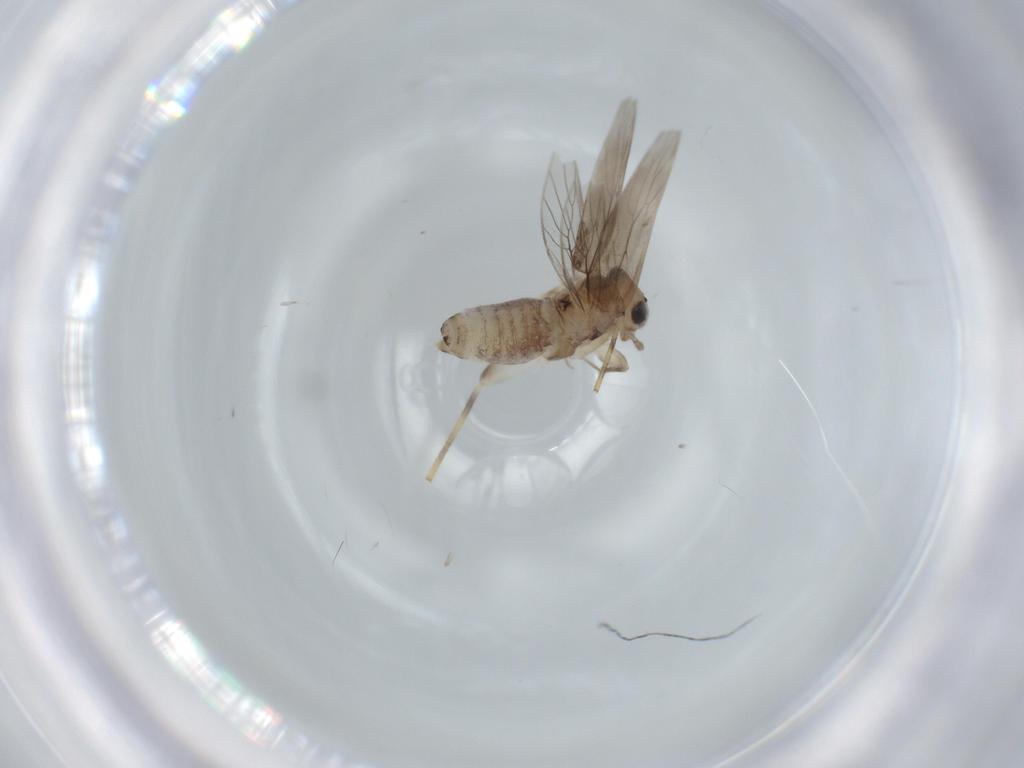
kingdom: Animalia
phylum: Arthropoda
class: Insecta
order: Psocodea
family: Lepidopsocidae
